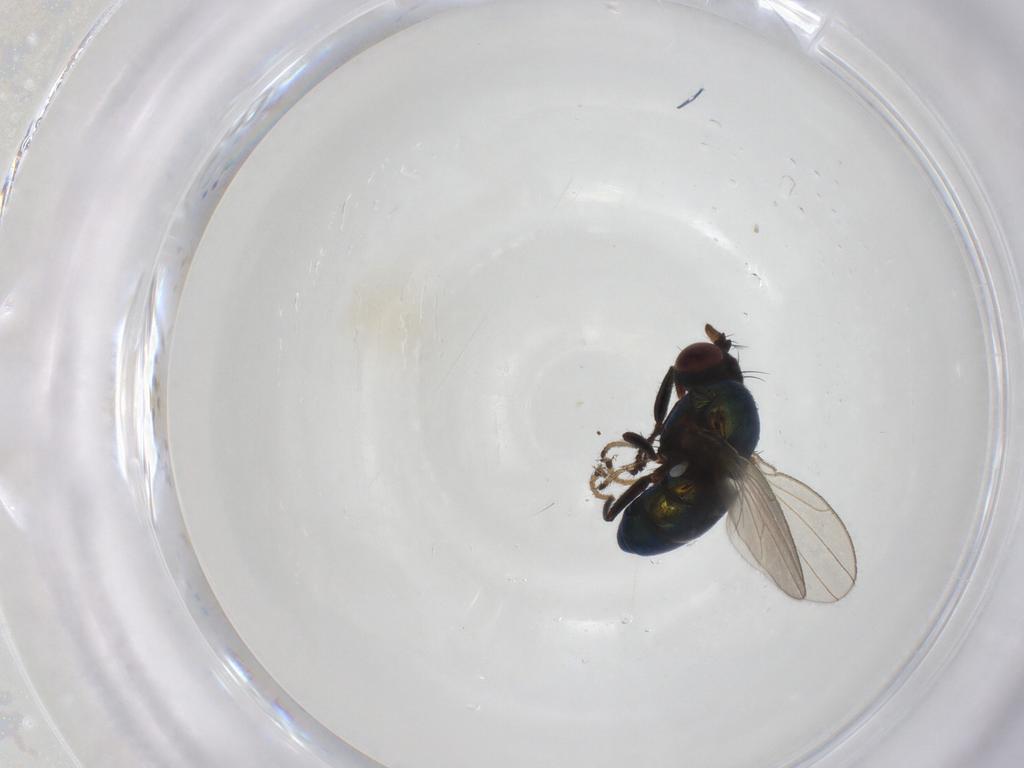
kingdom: Animalia
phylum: Arthropoda
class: Insecta
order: Diptera
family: Ephydridae
